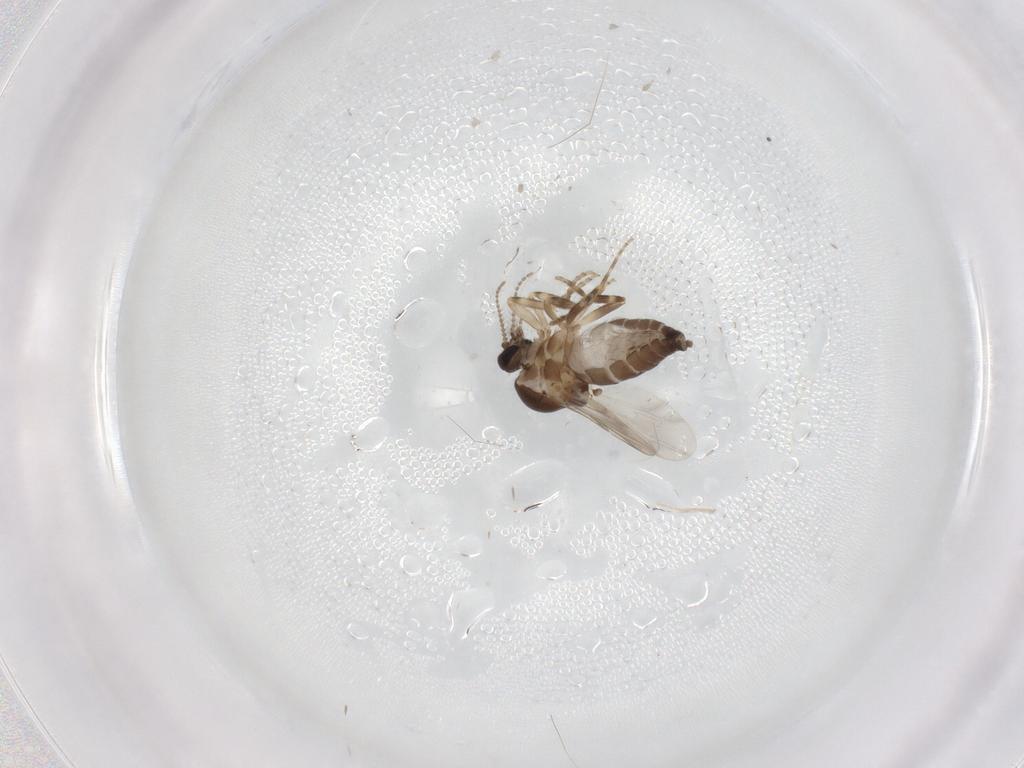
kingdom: Animalia
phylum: Arthropoda
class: Insecta
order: Diptera
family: Ceratopogonidae
